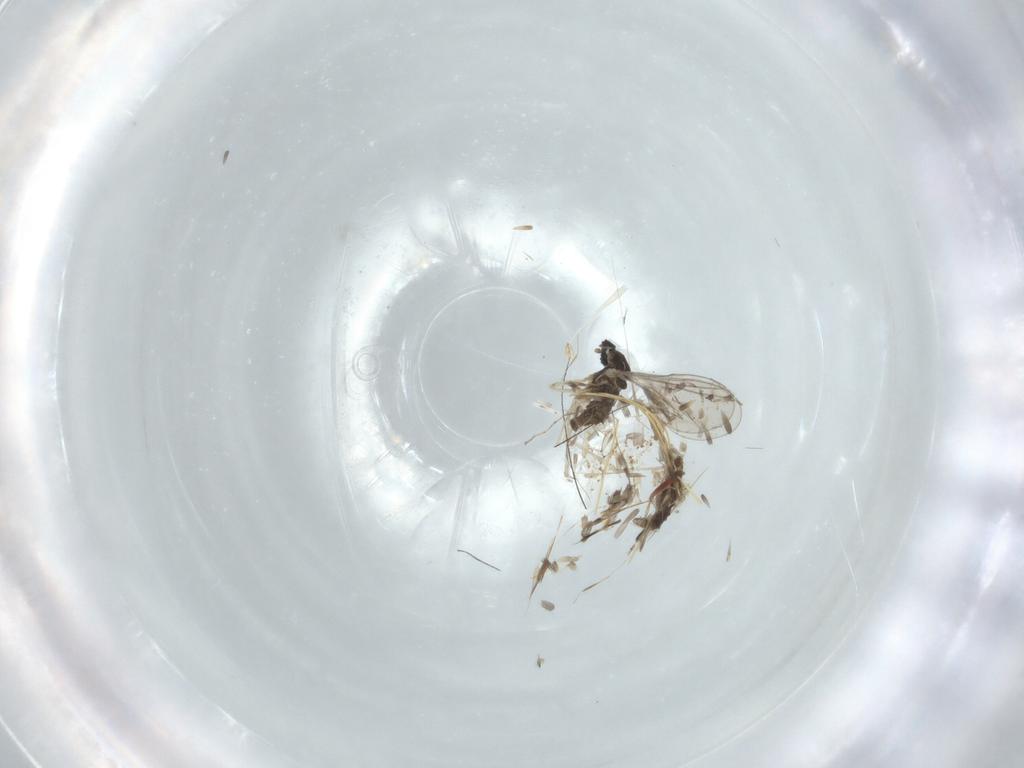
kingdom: Animalia
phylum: Arthropoda
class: Insecta
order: Diptera
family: Cecidomyiidae
